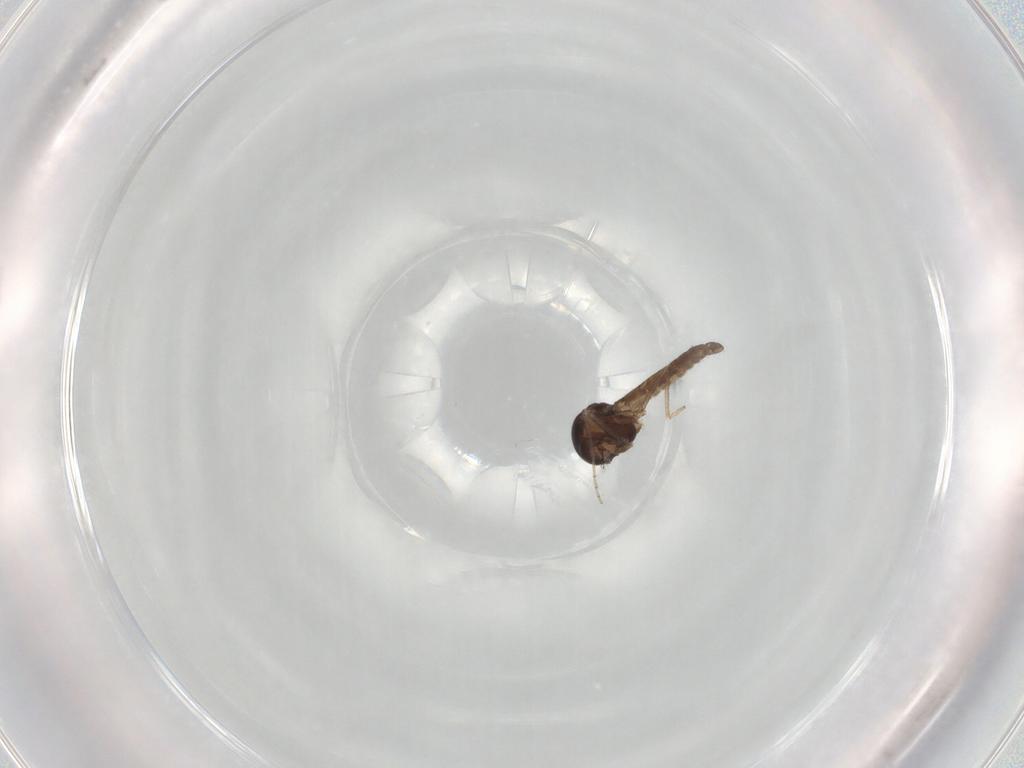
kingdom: Animalia
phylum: Arthropoda
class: Insecta
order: Diptera
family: Ceratopogonidae
